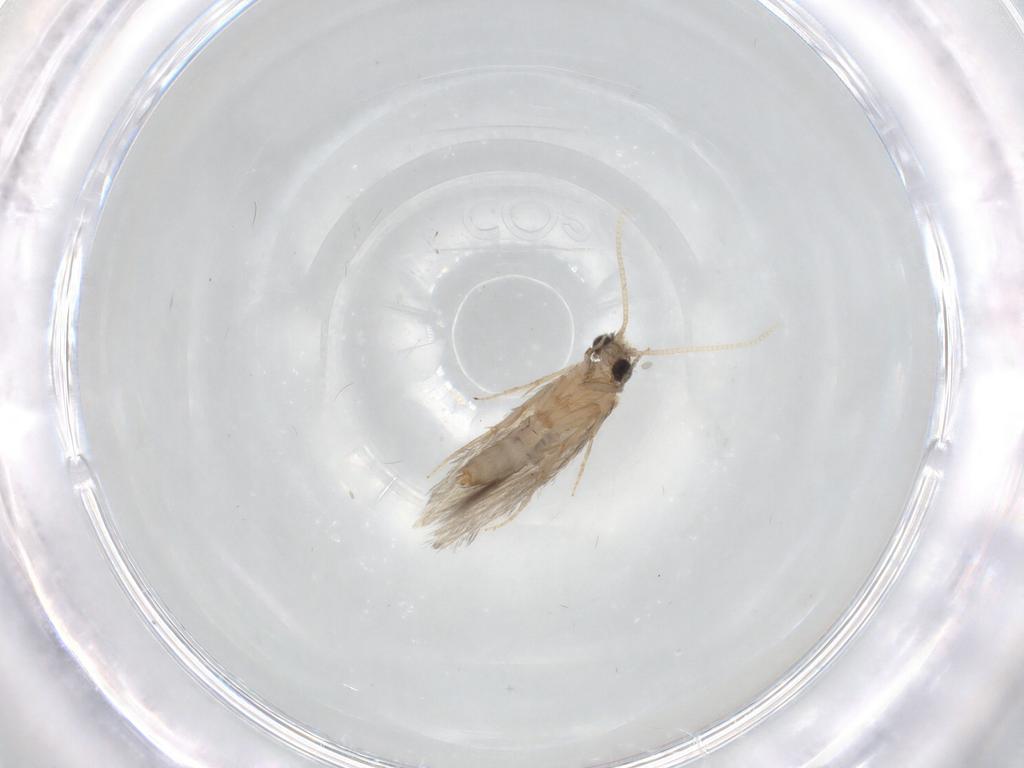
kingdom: Animalia
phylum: Arthropoda
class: Insecta
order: Trichoptera
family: Hydroptilidae
